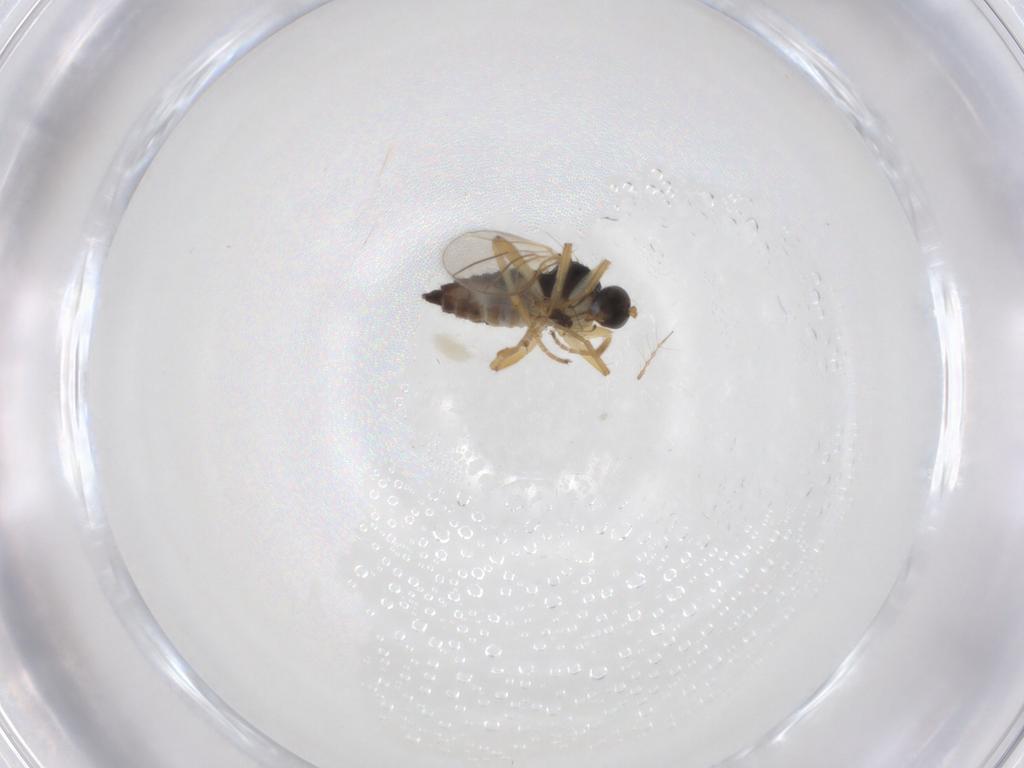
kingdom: Animalia
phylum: Arthropoda
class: Insecta
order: Diptera
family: Hybotidae
